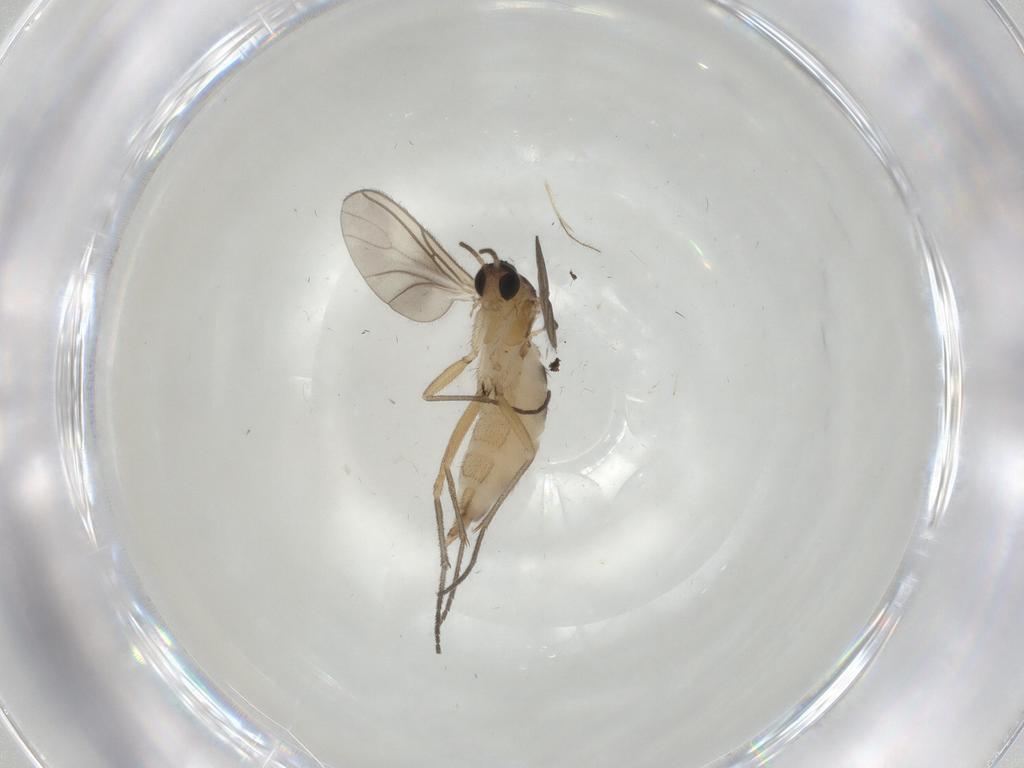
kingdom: Animalia
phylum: Arthropoda
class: Insecta
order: Diptera
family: Sciaridae
